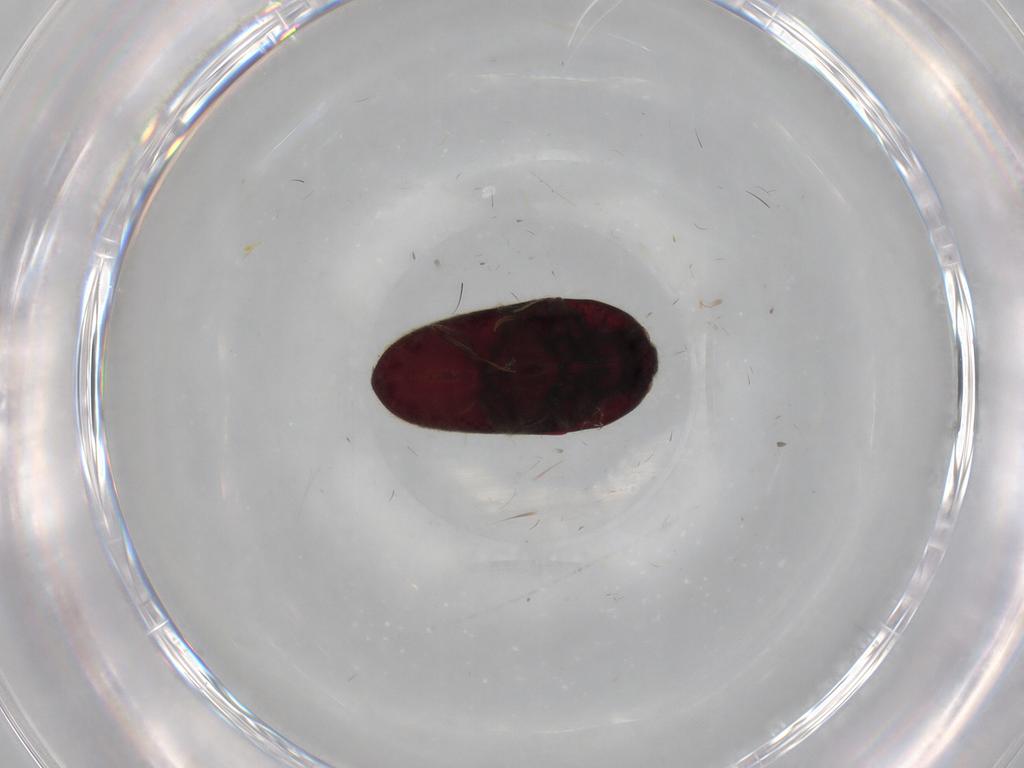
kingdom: Animalia
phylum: Arthropoda
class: Insecta
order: Coleoptera
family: Throscidae
